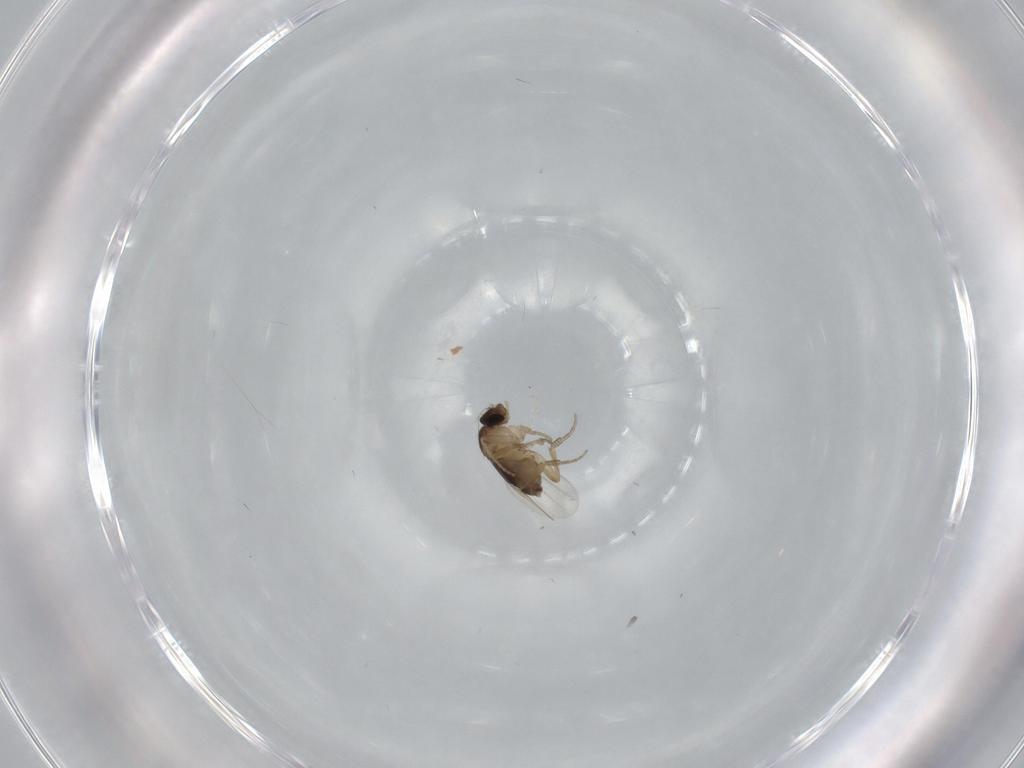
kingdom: Animalia
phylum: Arthropoda
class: Insecta
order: Diptera
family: Phoridae
